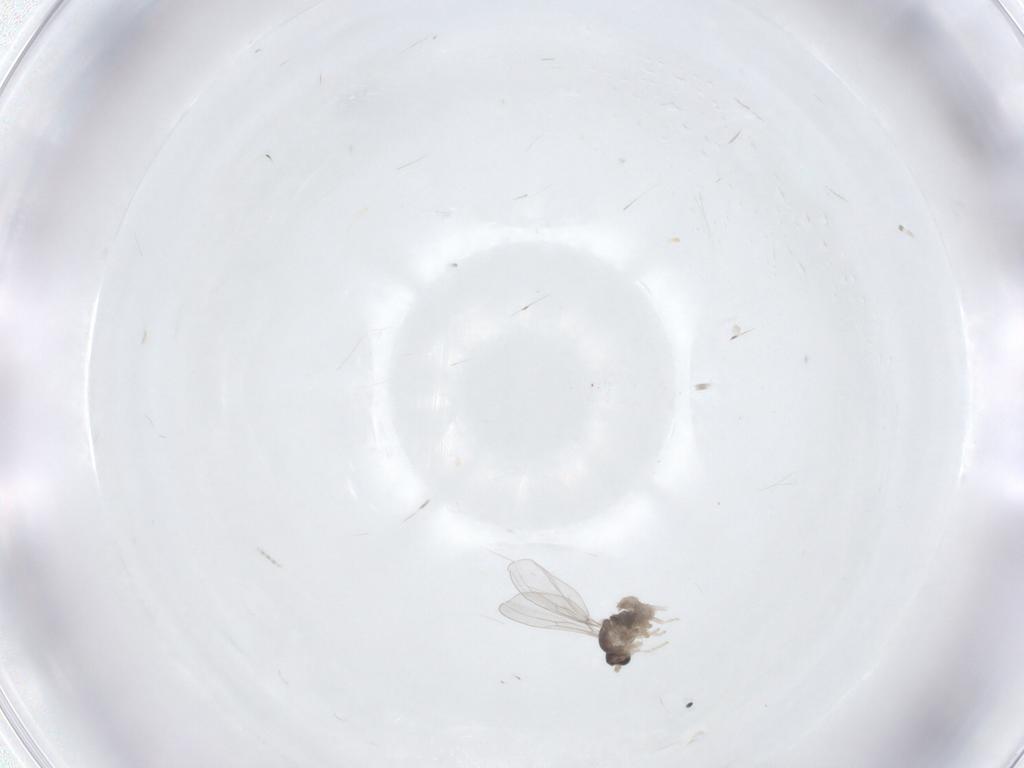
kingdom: Animalia
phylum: Arthropoda
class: Insecta
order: Diptera
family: Cecidomyiidae
